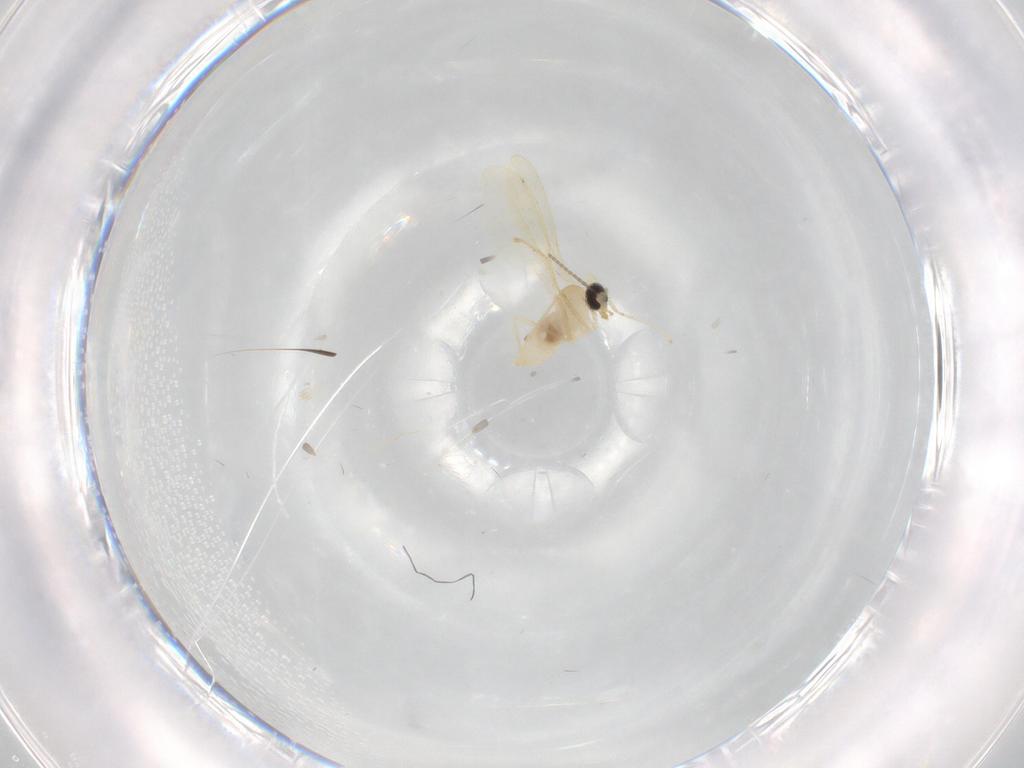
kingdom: Animalia
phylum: Arthropoda
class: Insecta
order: Diptera
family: Cecidomyiidae
